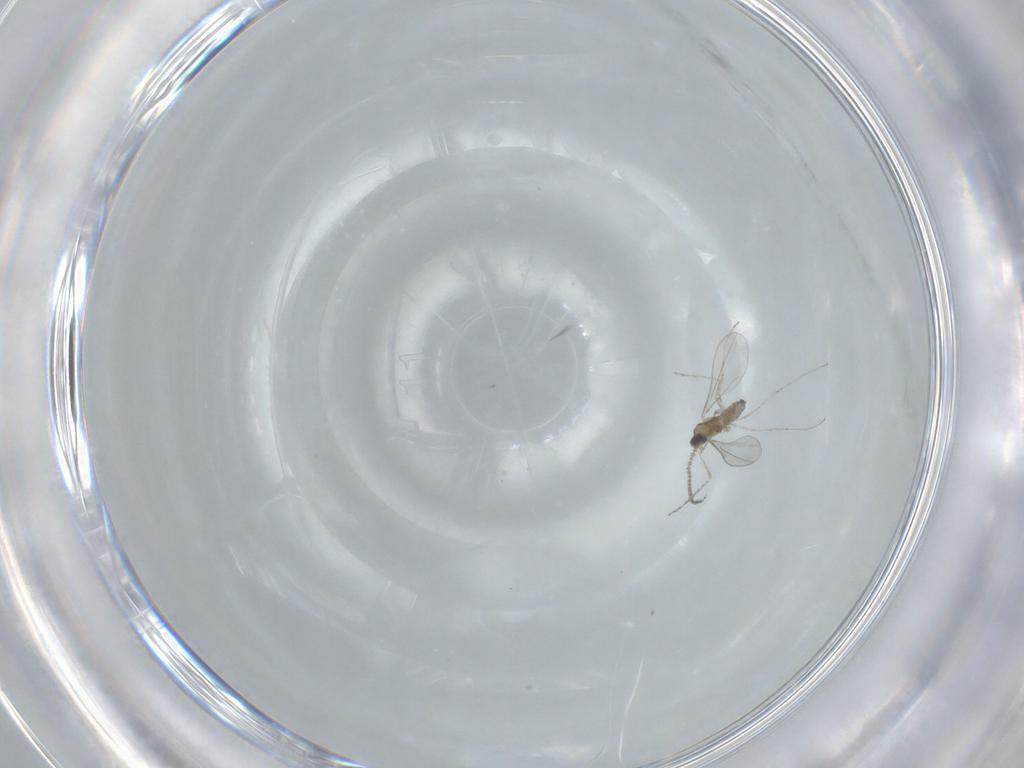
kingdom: Animalia
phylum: Arthropoda
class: Insecta
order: Diptera
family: Cecidomyiidae
